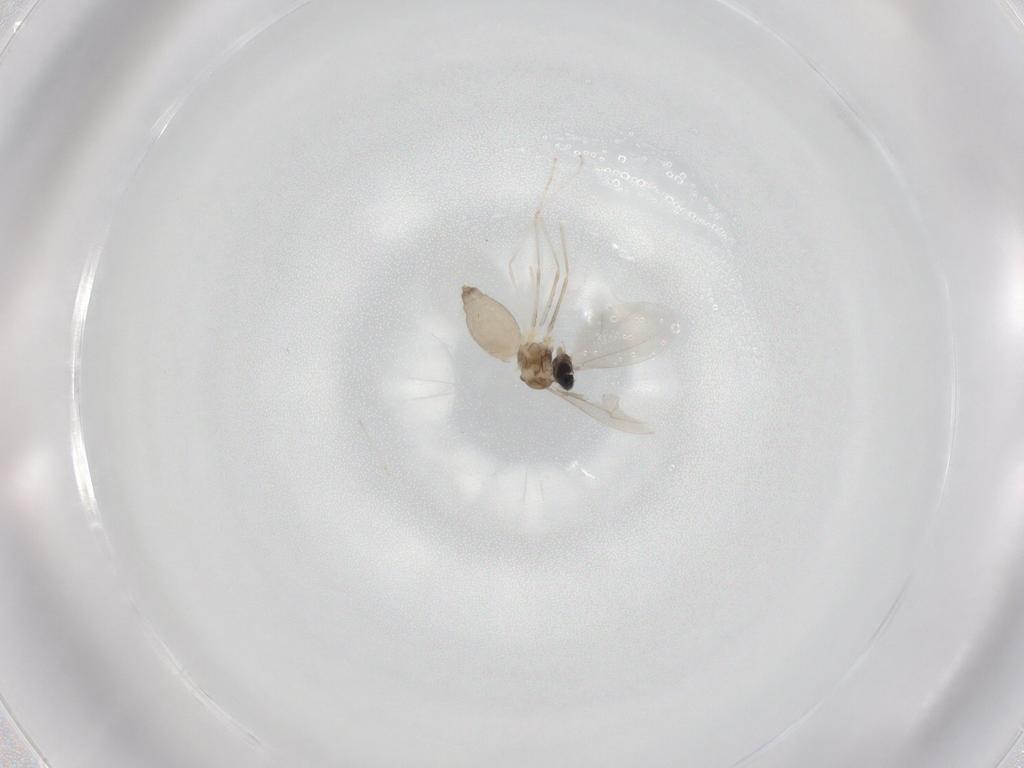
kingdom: Animalia
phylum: Arthropoda
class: Insecta
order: Diptera
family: Cecidomyiidae
